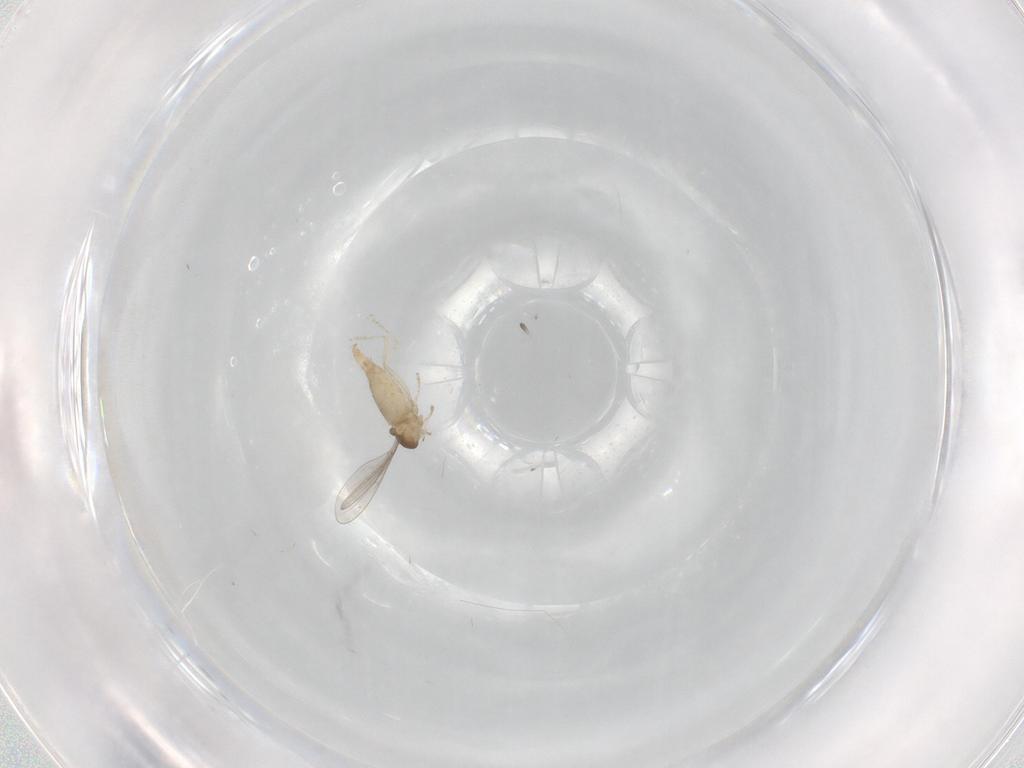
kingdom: Animalia
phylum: Arthropoda
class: Insecta
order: Diptera
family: Cecidomyiidae
